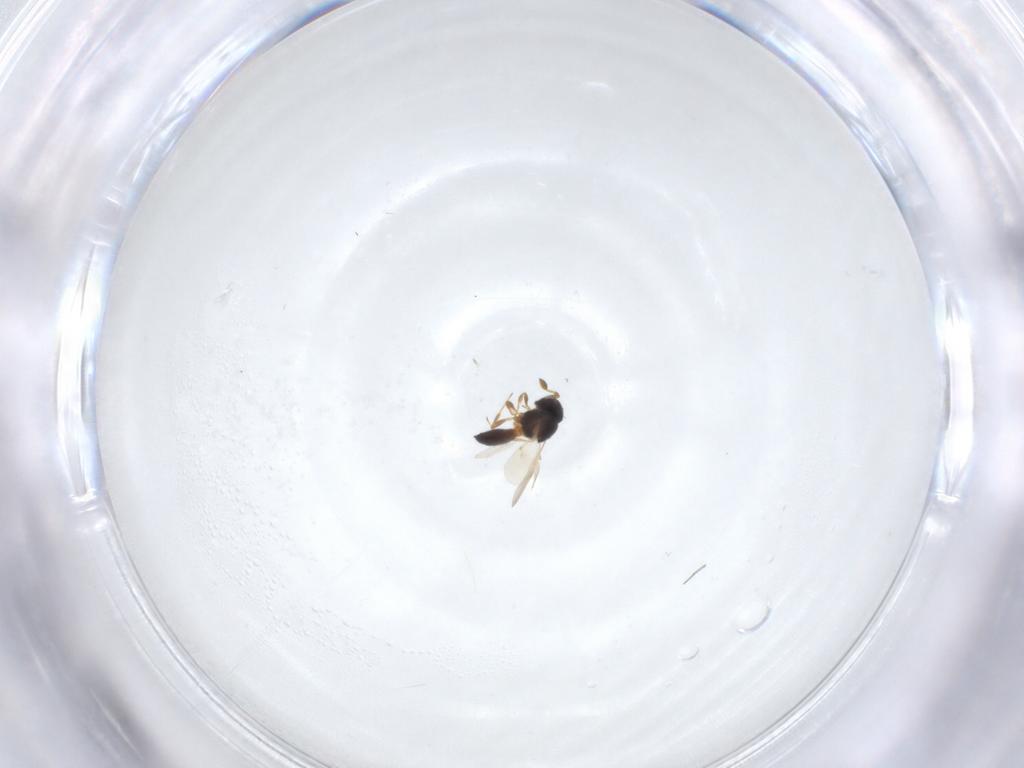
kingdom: Animalia
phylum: Arthropoda
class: Insecta
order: Hymenoptera
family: Scelionidae
